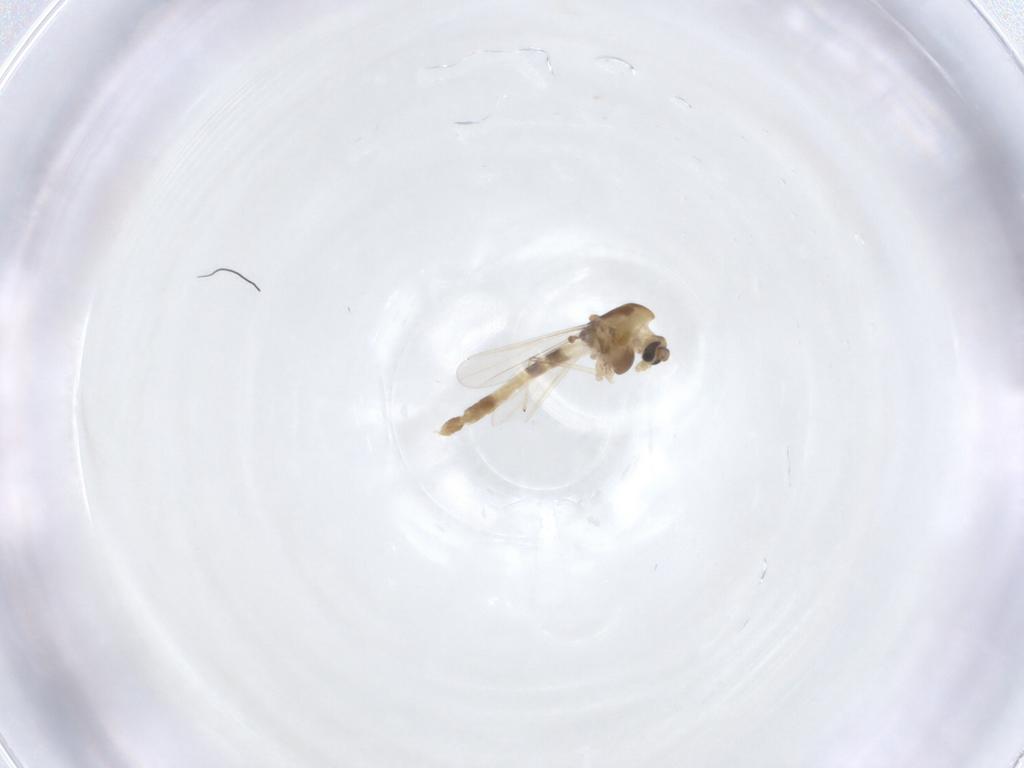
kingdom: Animalia
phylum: Arthropoda
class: Insecta
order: Diptera
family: Chironomidae
